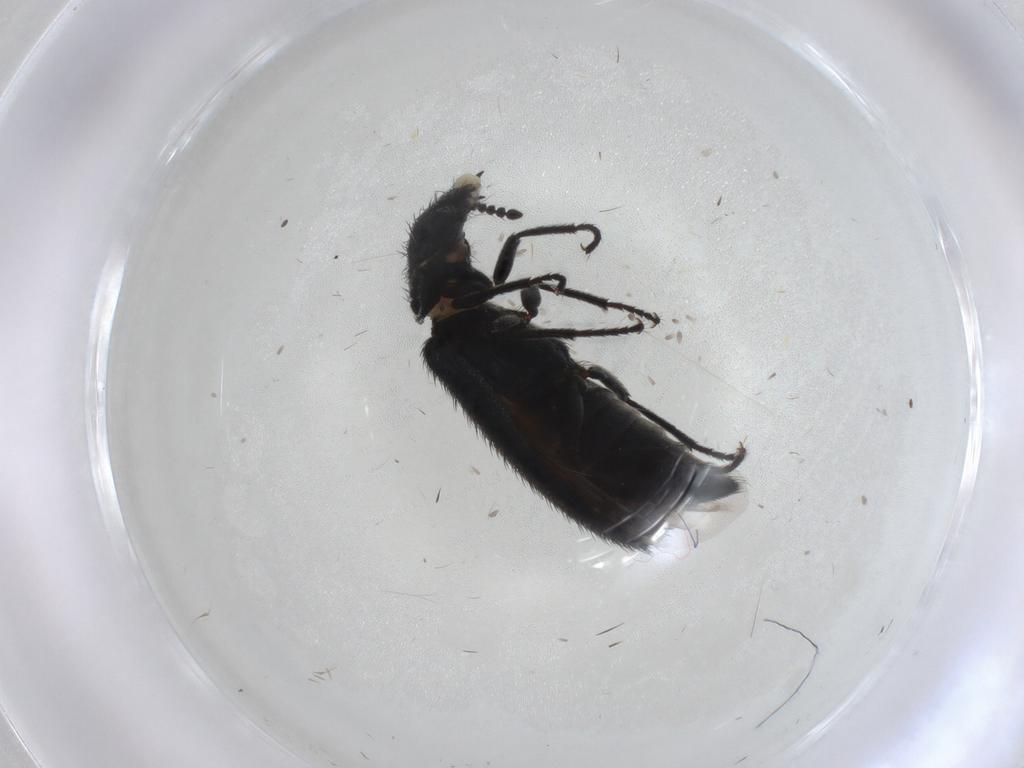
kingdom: Animalia
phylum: Arthropoda
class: Insecta
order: Coleoptera
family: Melyridae
